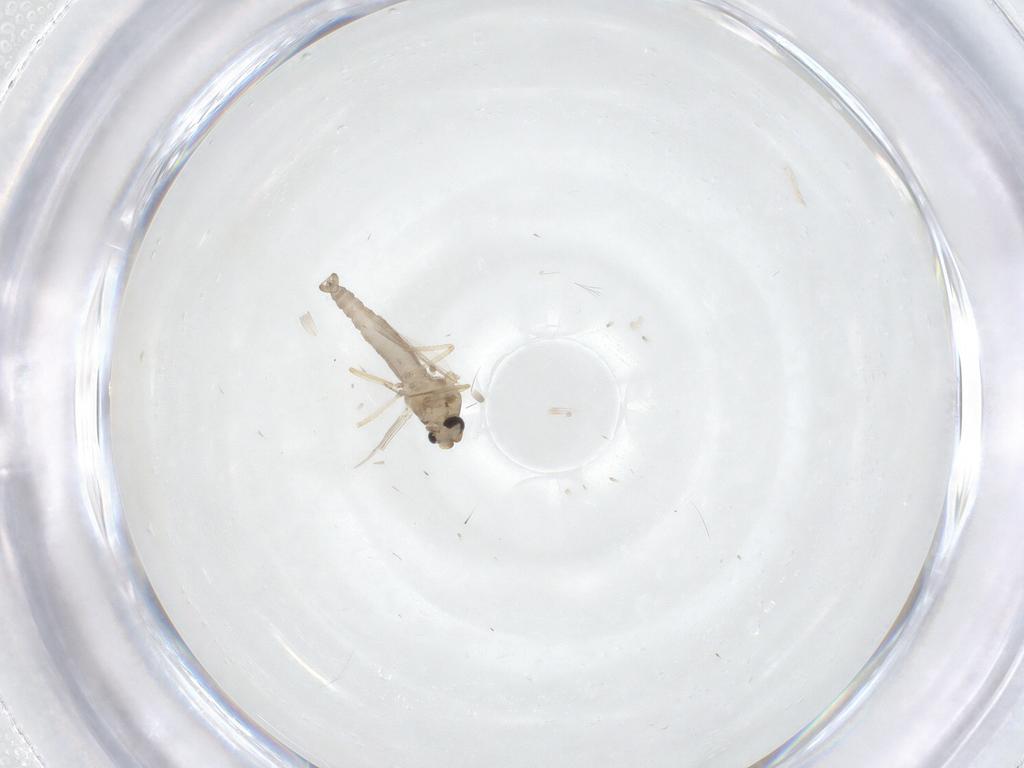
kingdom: Animalia
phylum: Arthropoda
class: Insecta
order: Diptera
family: Ceratopogonidae
